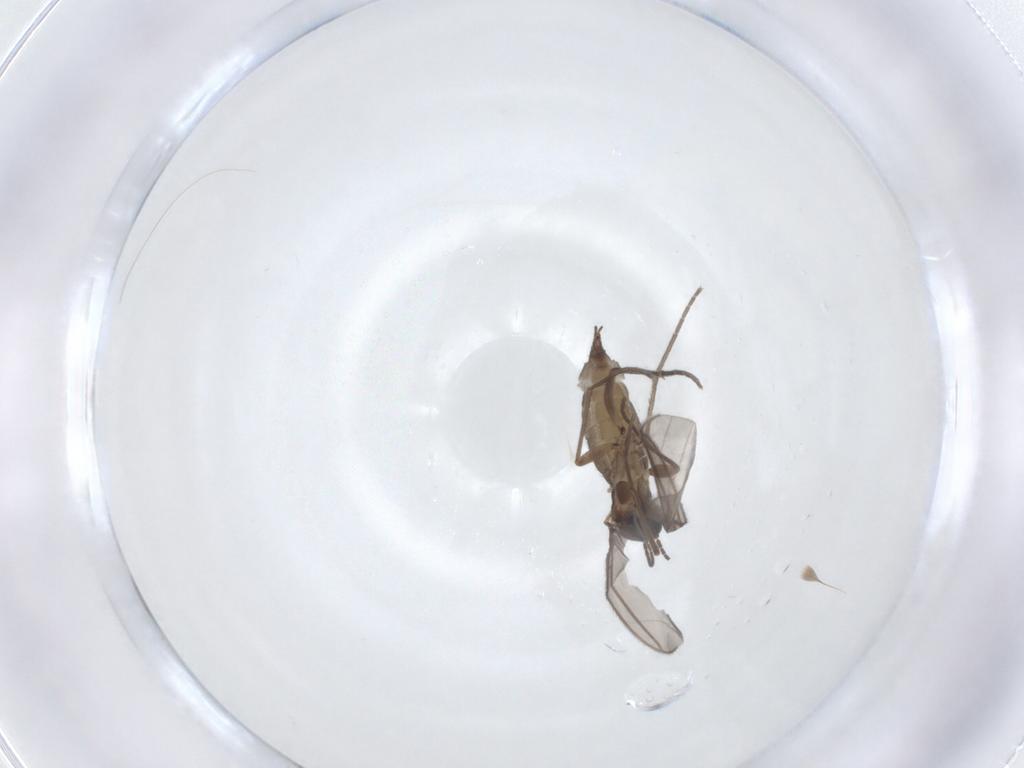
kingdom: Animalia
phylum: Arthropoda
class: Insecta
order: Diptera
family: Sciaridae
